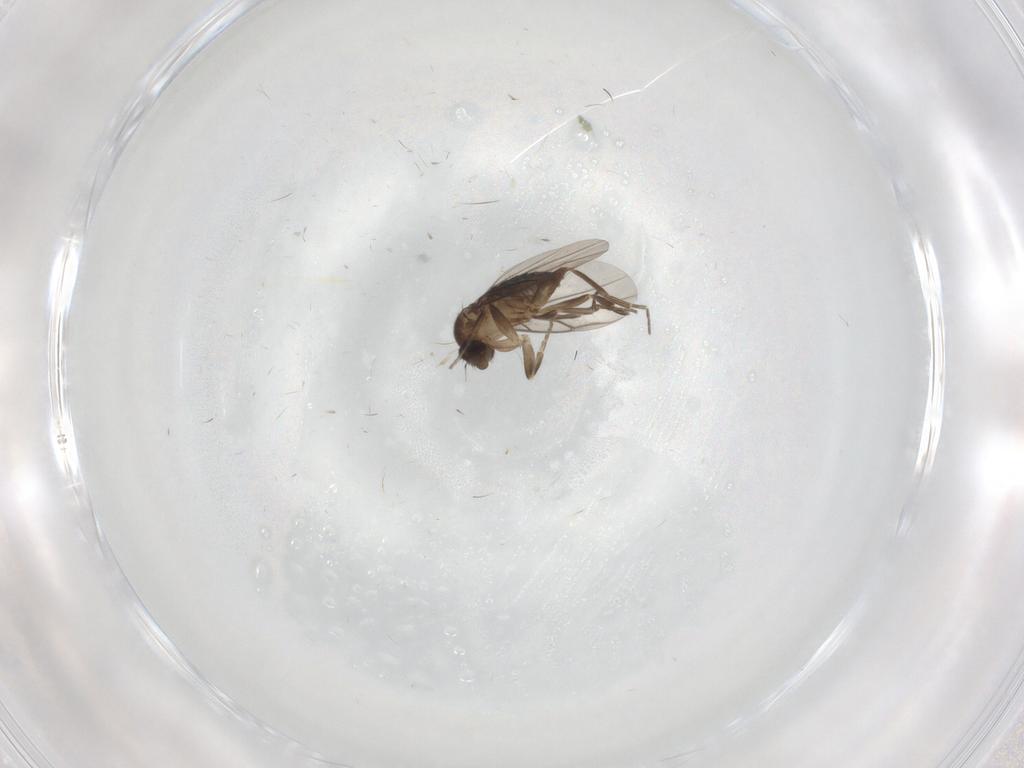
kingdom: Animalia
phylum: Arthropoda
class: Insecta
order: Diptera
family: Cecidomyiidae
